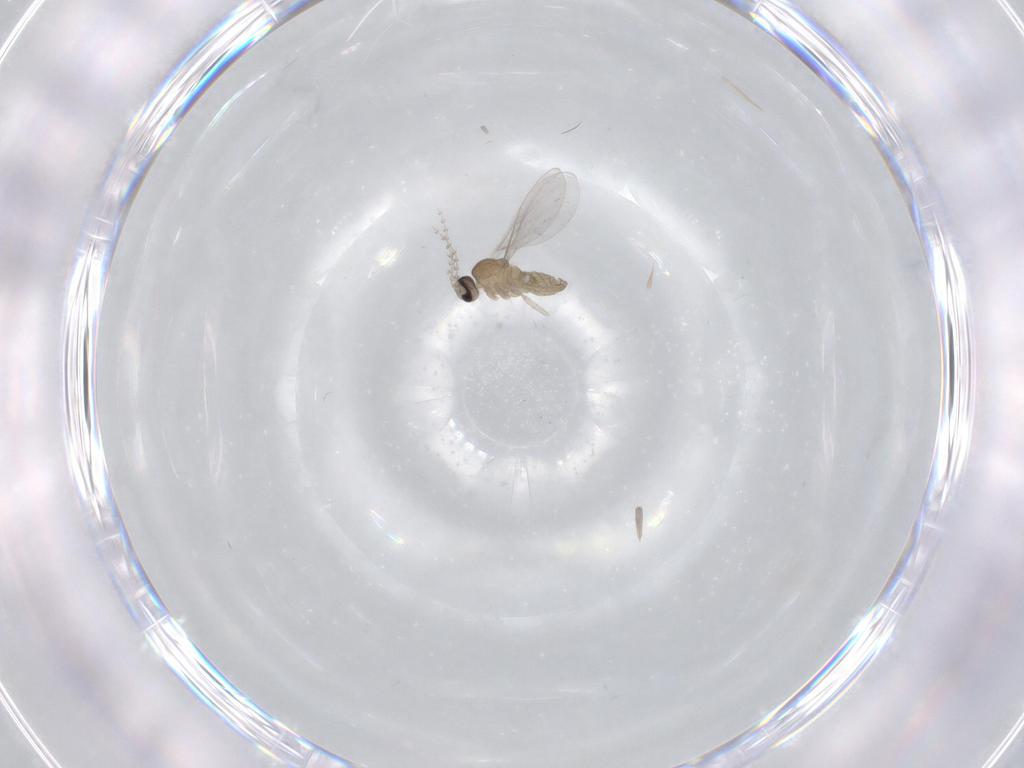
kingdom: Animalia
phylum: Arthropoda
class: Insecta
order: Diptera
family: Cecidomyiidae
